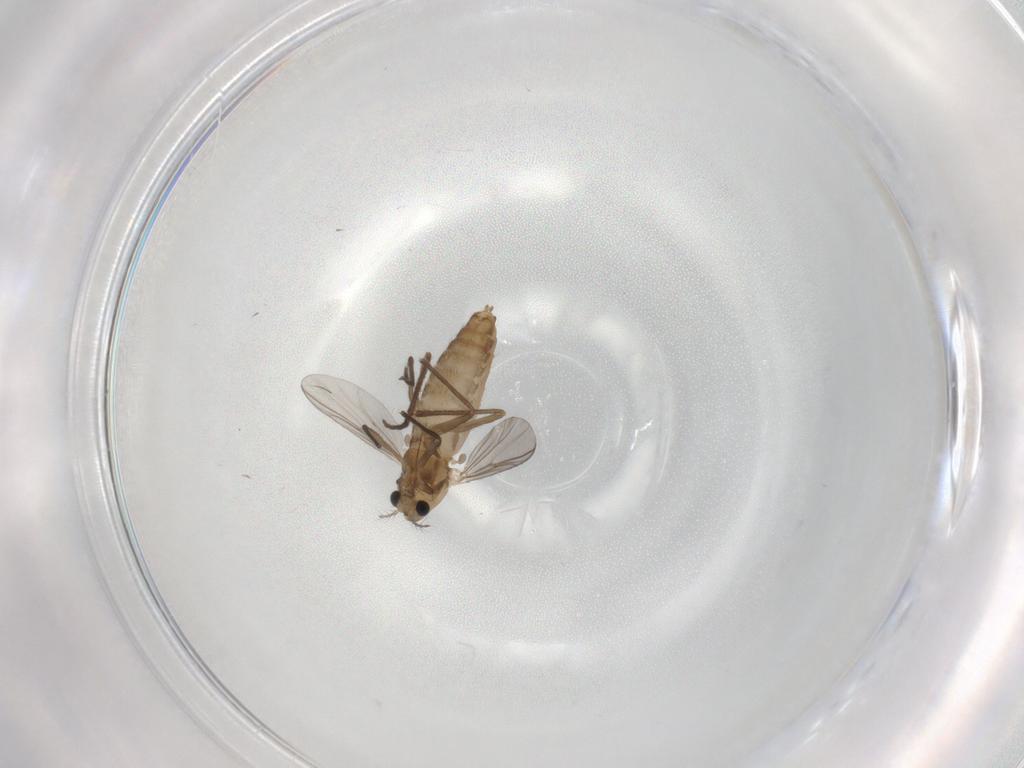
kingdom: Animalia
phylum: Arthropoda
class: Insecta
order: Diptera
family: Chironomidae
